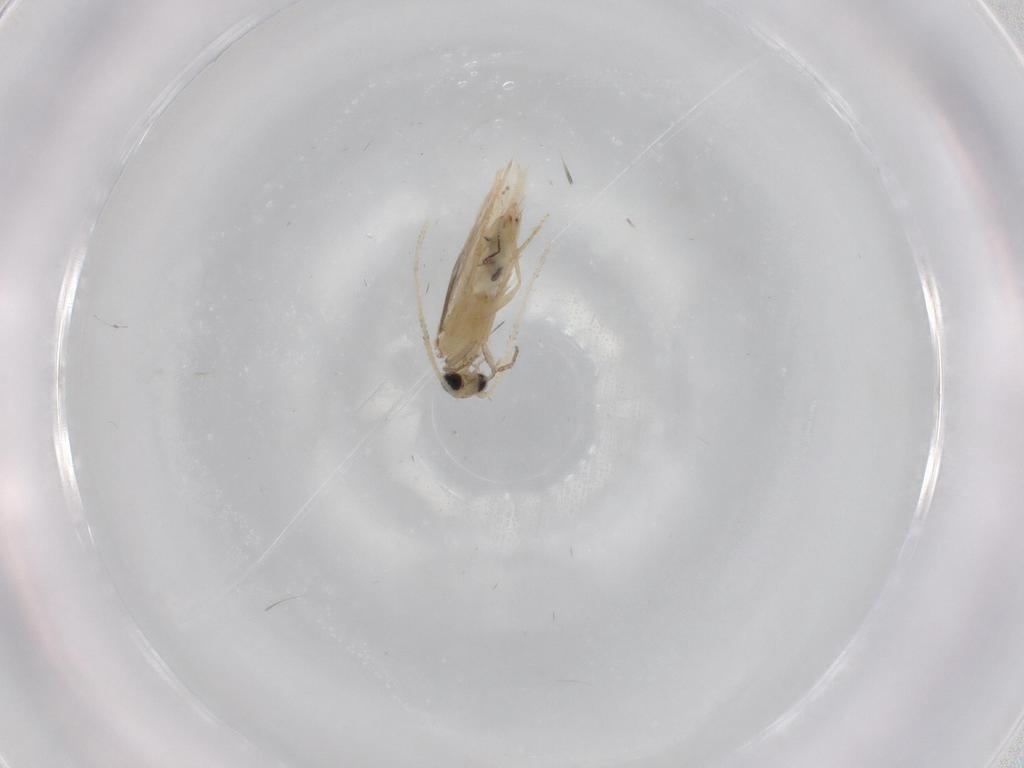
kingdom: Animalia
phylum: Arthropoda
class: Insecta
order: Trichoptera
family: Hydroptilidae
